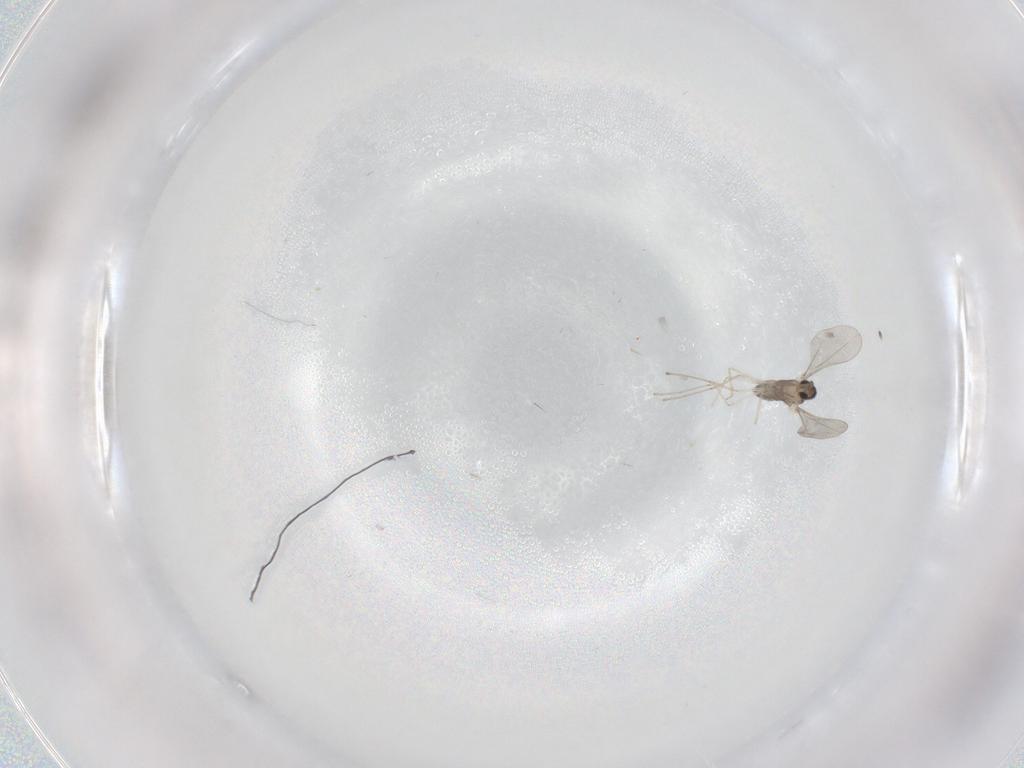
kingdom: Animalia
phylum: Arthropoda
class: Insecta
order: Diptera
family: Cecidomyiidae
